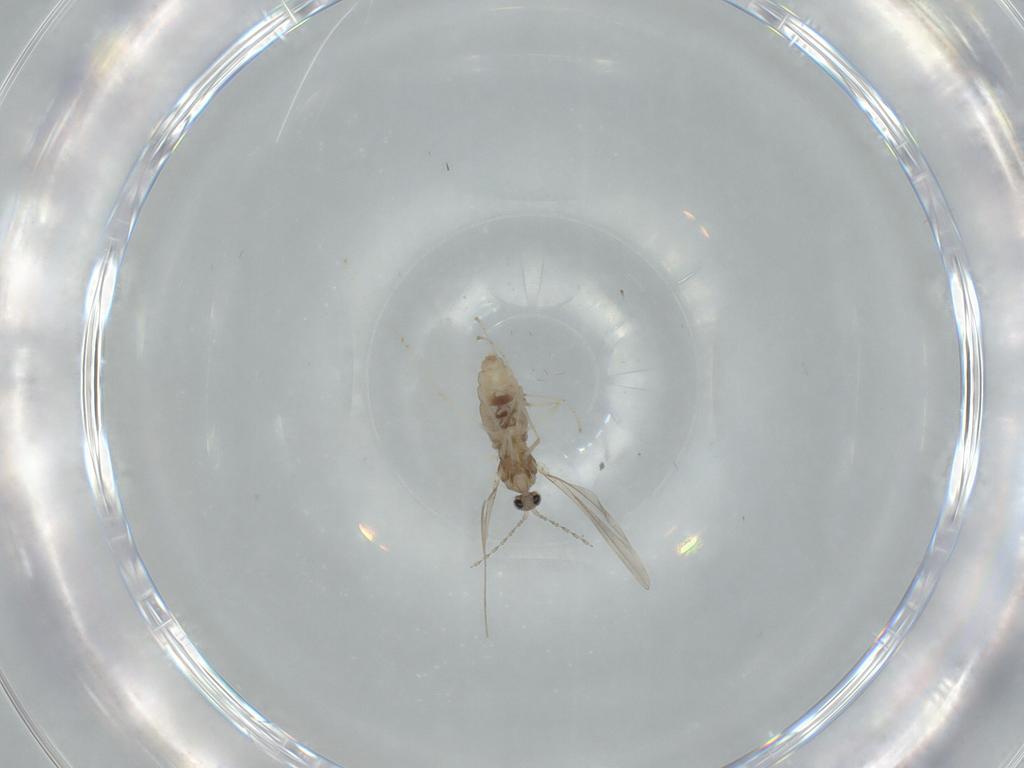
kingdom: Animalia
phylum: Arthropoda
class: Insecta
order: Diptera
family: Cecidomyiidae
